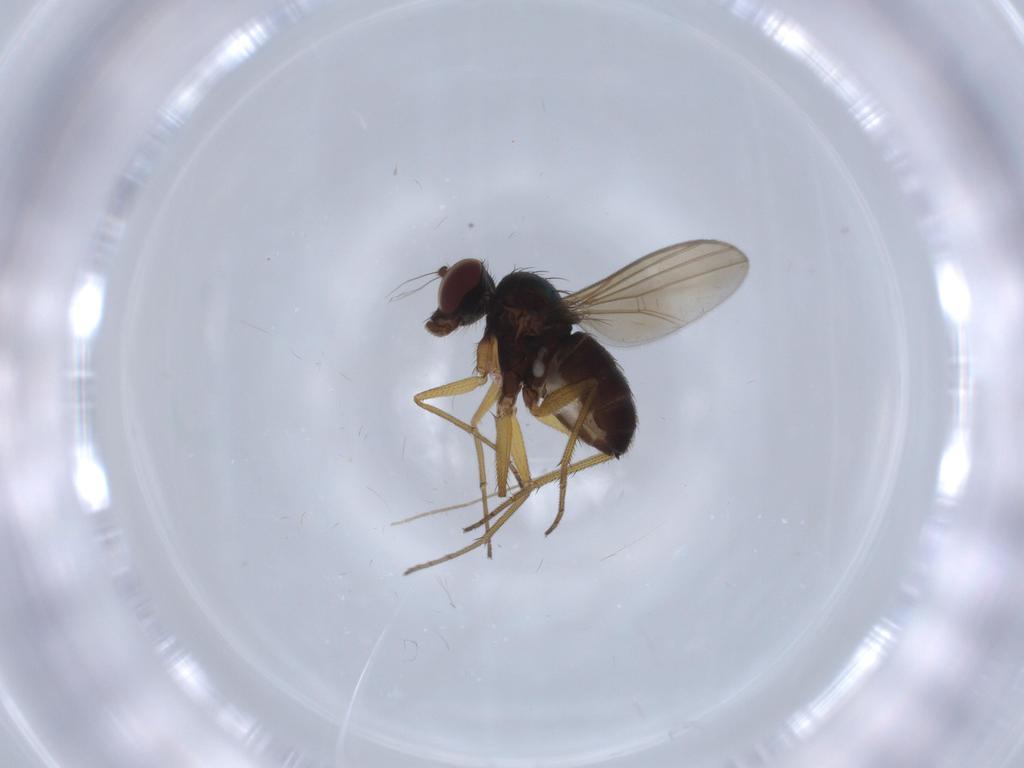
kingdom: Animalia
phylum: Arthropoda
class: Insecta
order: Diptera
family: Dolichopodidae
